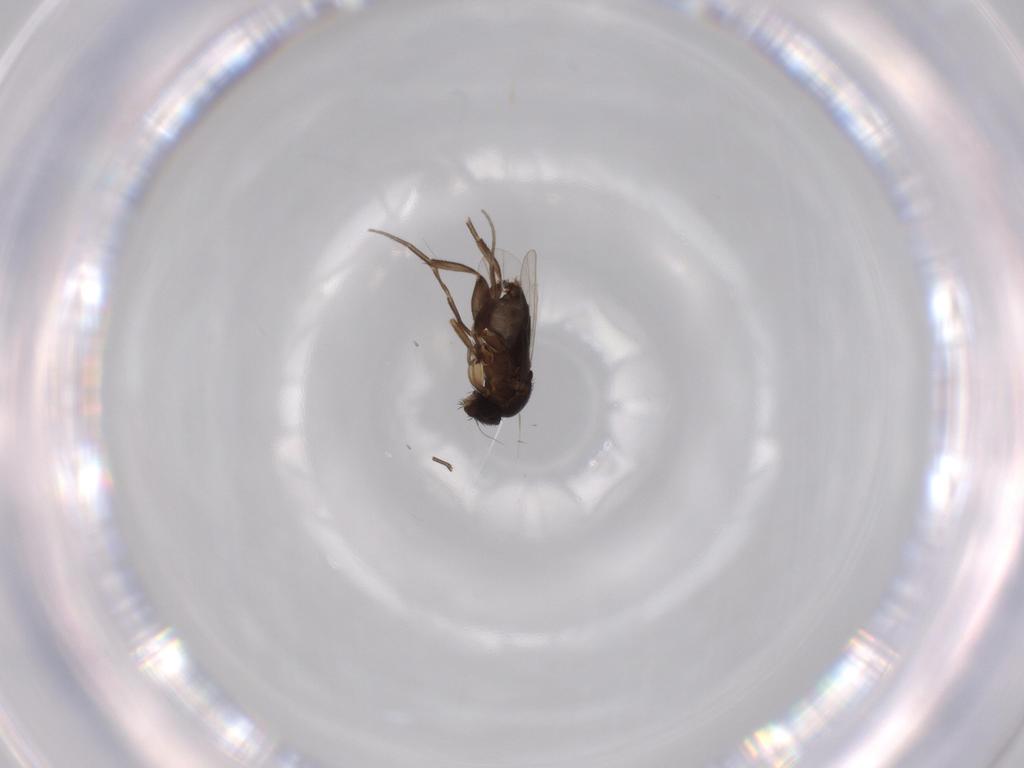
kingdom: Animalia
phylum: Arthropoda
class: Insecta
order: Diptera
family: Phoridae
